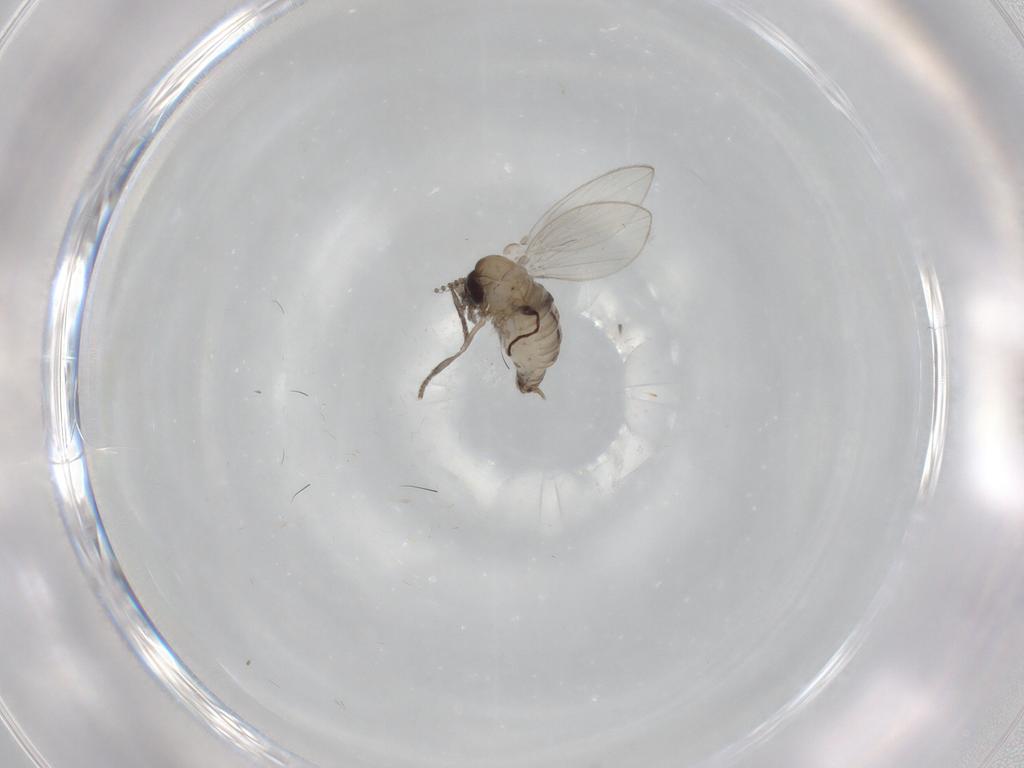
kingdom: Animalia
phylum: Arthropoda
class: Insecta
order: Diptera
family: Psychodidae
